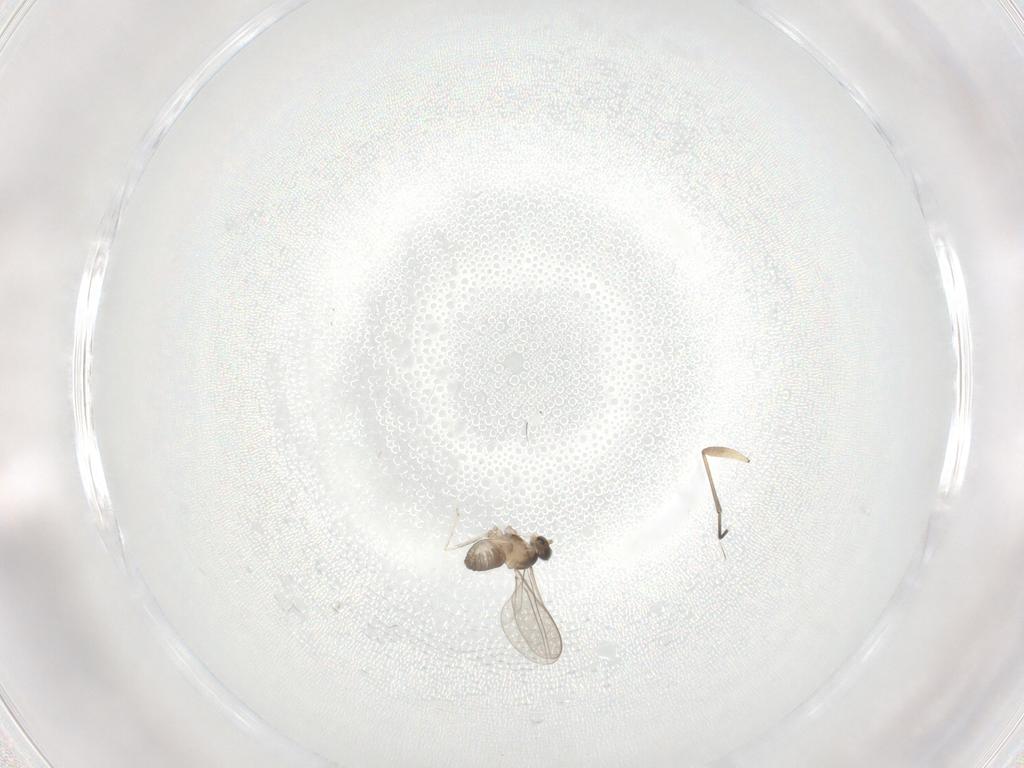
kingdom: Animalia
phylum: Arthropoda
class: Insecta
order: Diptera
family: Cecidomyiidae
